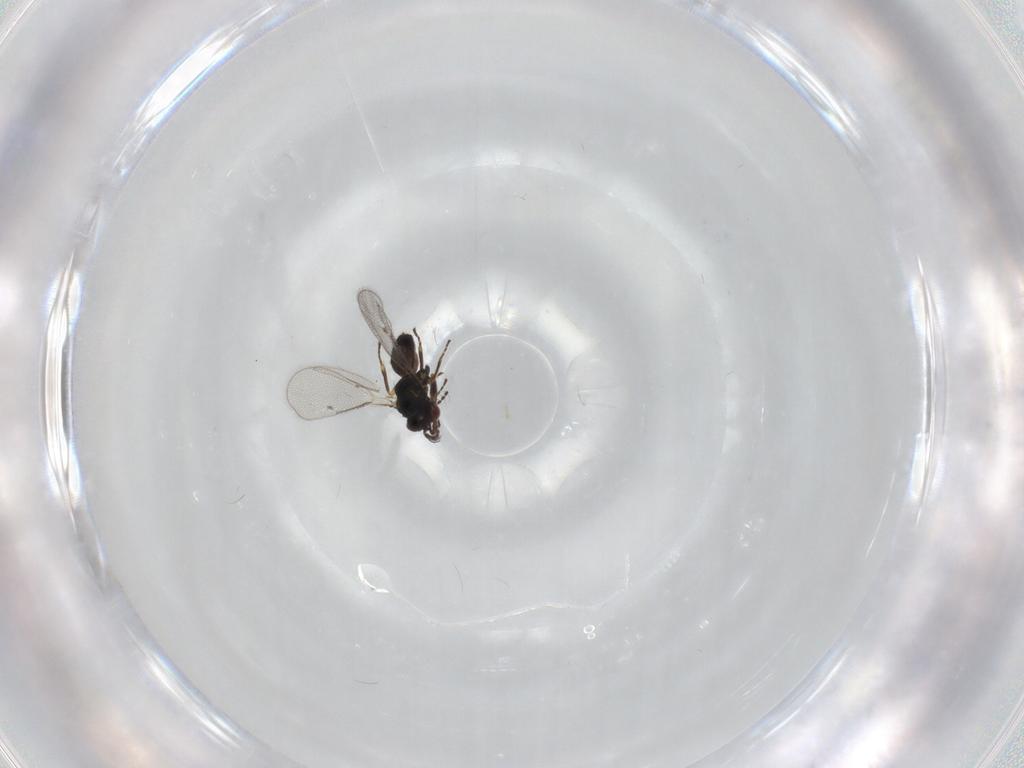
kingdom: Animalia
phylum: Arthropoda
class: Insecta
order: Hymenoptera
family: Eulophidae
